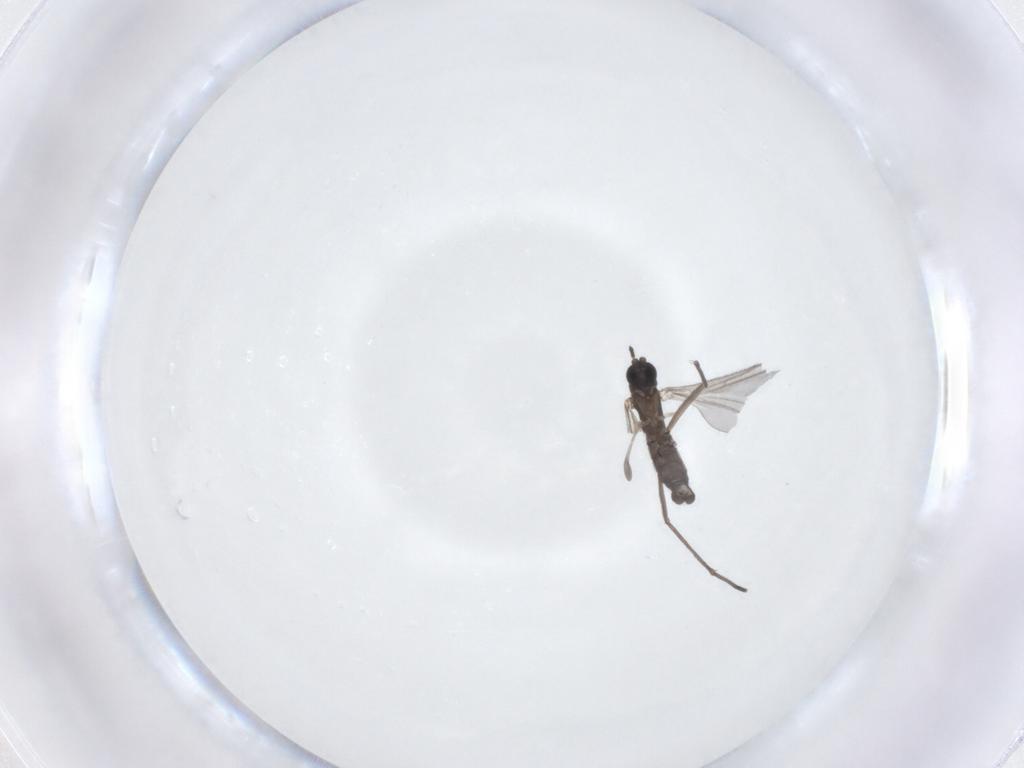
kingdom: Animalia
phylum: Arthropoda
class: Insecta
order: Diptera
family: Sciaridae
